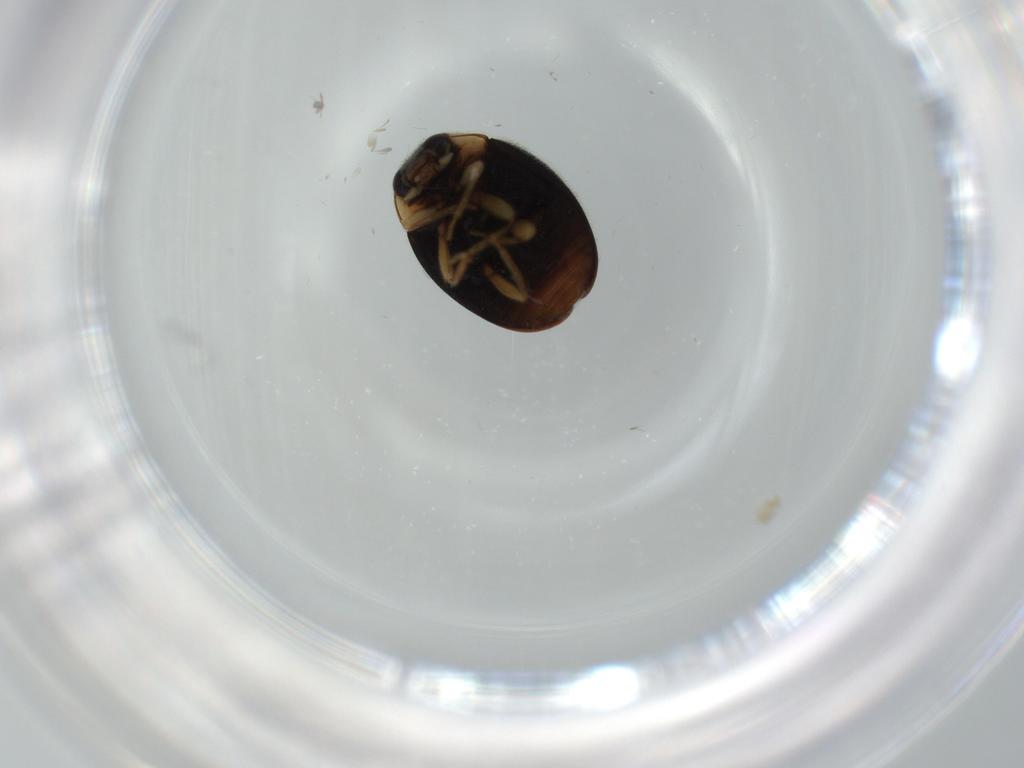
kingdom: Animalia
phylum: Arthropoda
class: Insecta
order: Coleoptera
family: Coccinellidae
